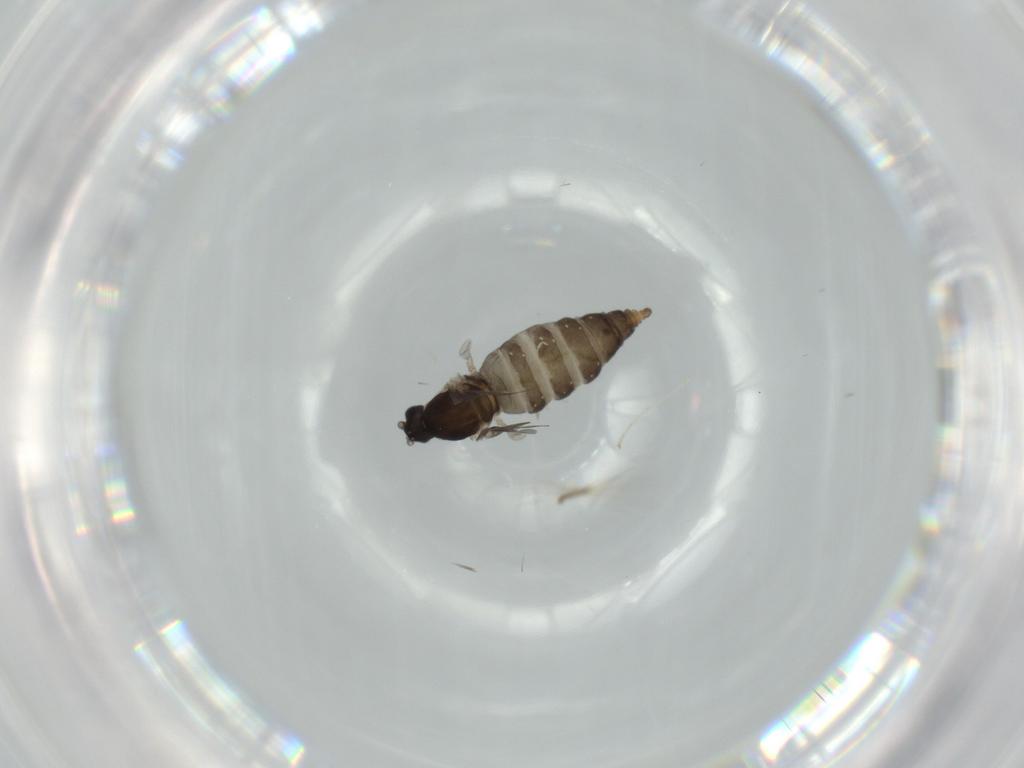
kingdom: Animalia
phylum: Arthropoda
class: Insecta
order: Diptera
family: Cecidomyiidae
